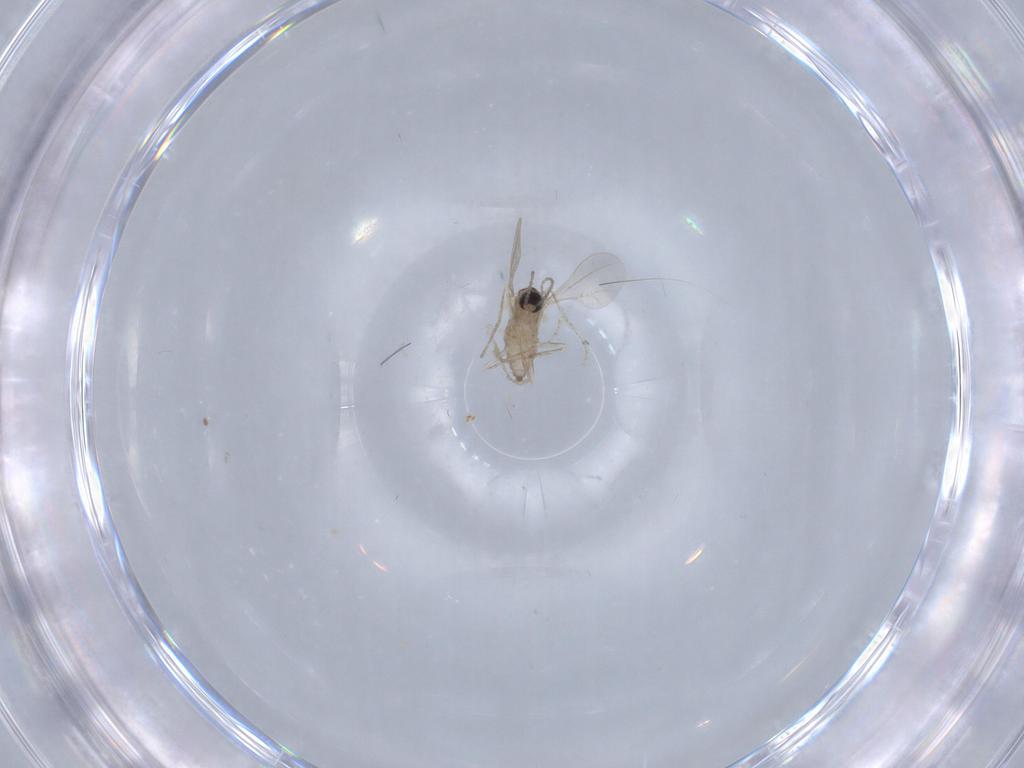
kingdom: Animalia
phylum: Arthropoda
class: Insecta
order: Diptera
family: Cecidomyiidae
